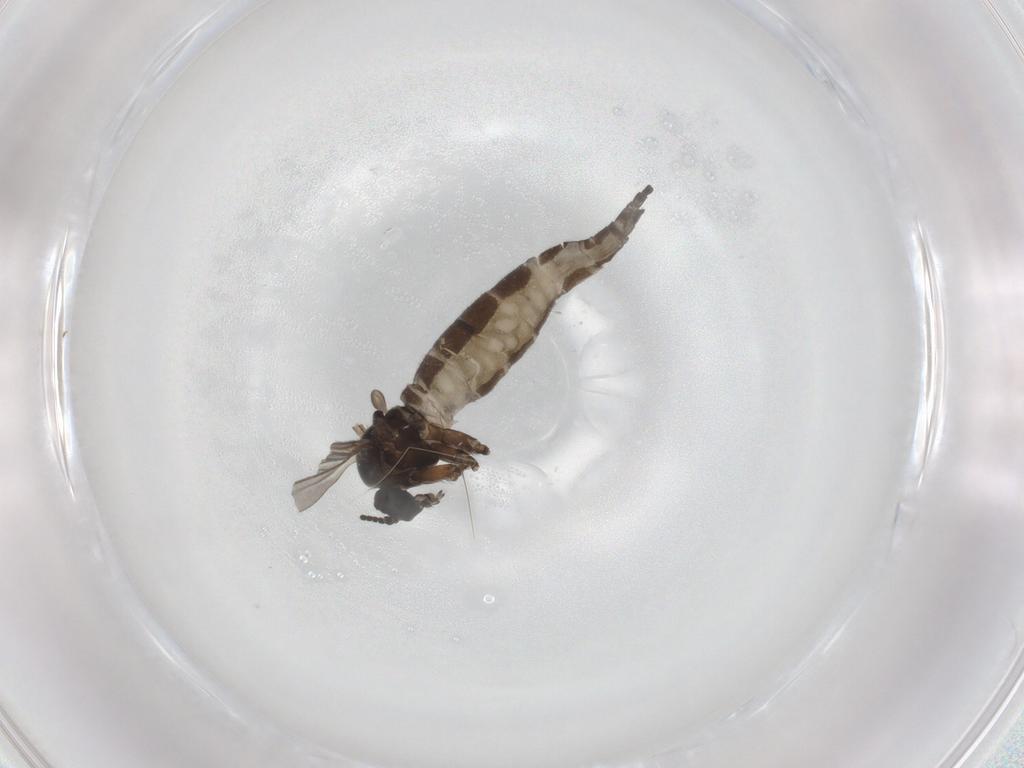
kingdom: Animalia
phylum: Arthropoda
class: Insecta
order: Diptera
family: Sciaridae
